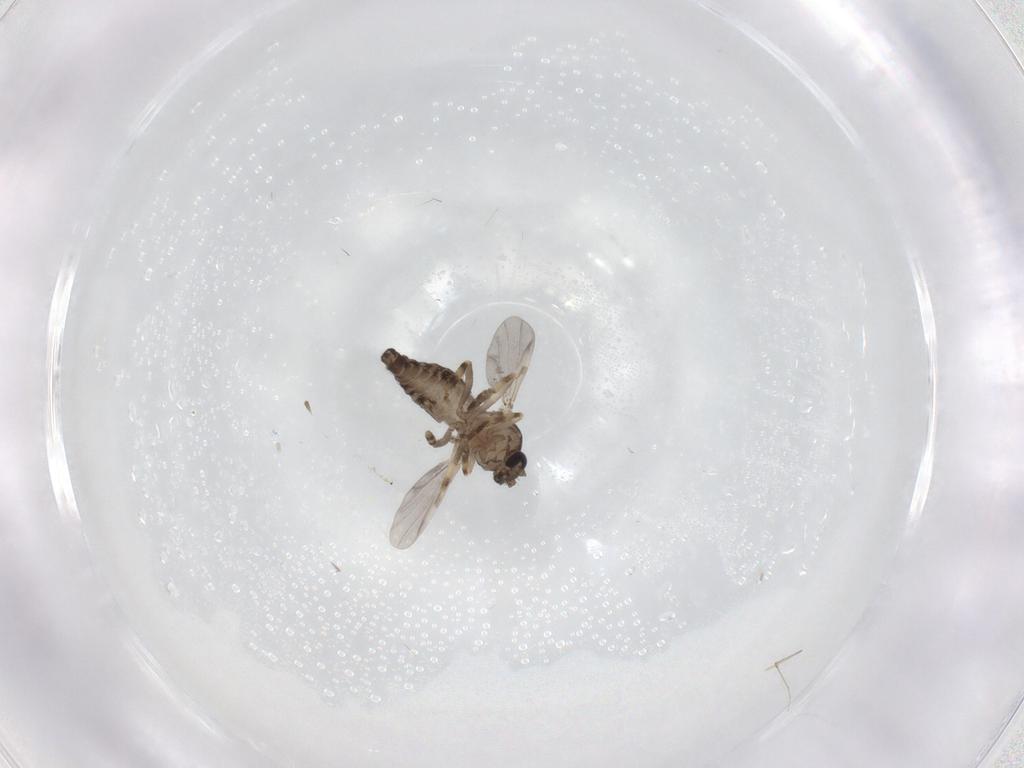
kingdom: Animalia
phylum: Arthropoda
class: Insecta
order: Diptera
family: Ceratopogonidae
